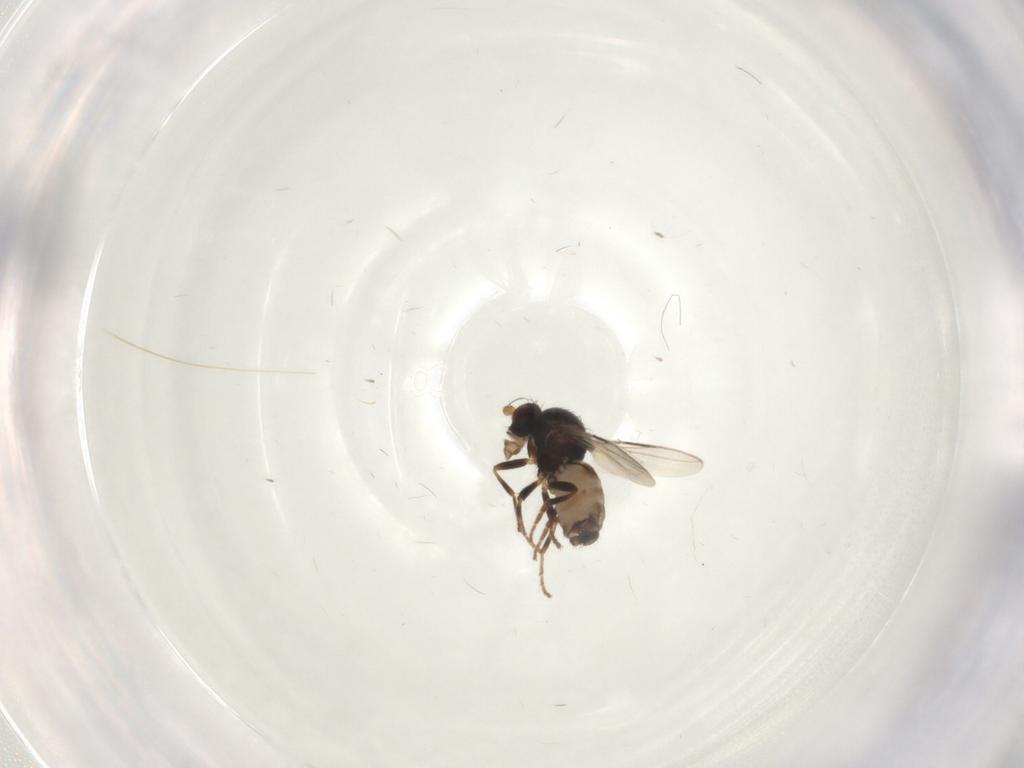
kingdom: Animalia
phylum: Arthropoda
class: Insecta
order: Diptera
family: Sphaeroceridae
